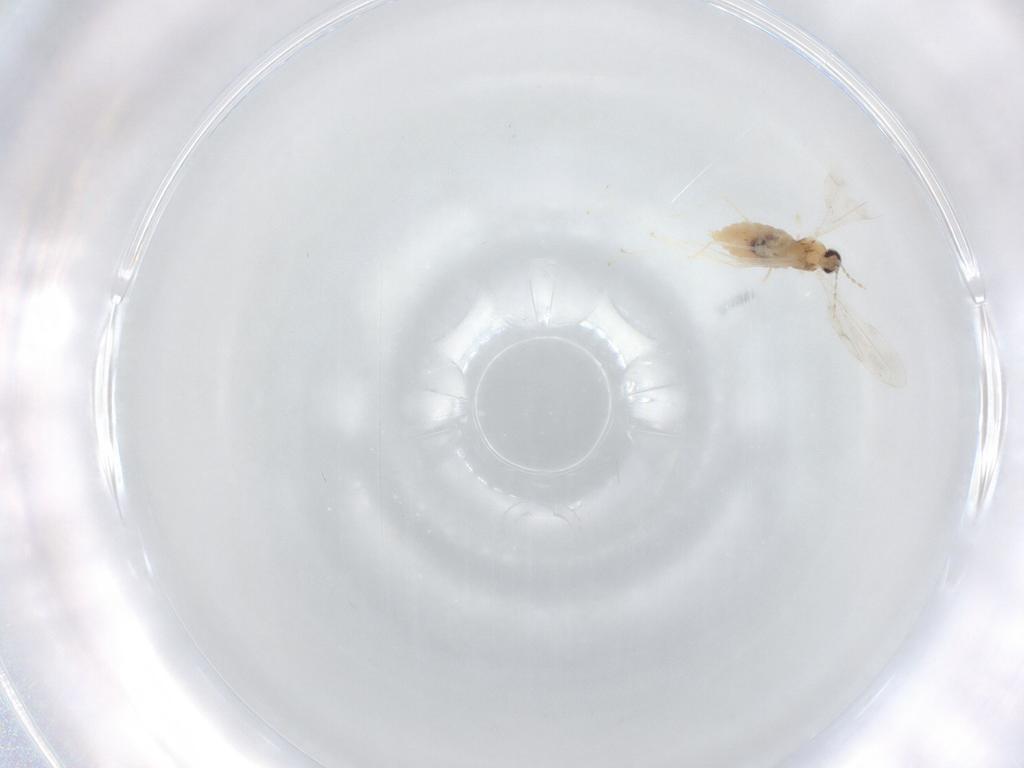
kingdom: Animalia
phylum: Arthropoda
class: Insecta
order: Diptera
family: Cecidomyiidae
